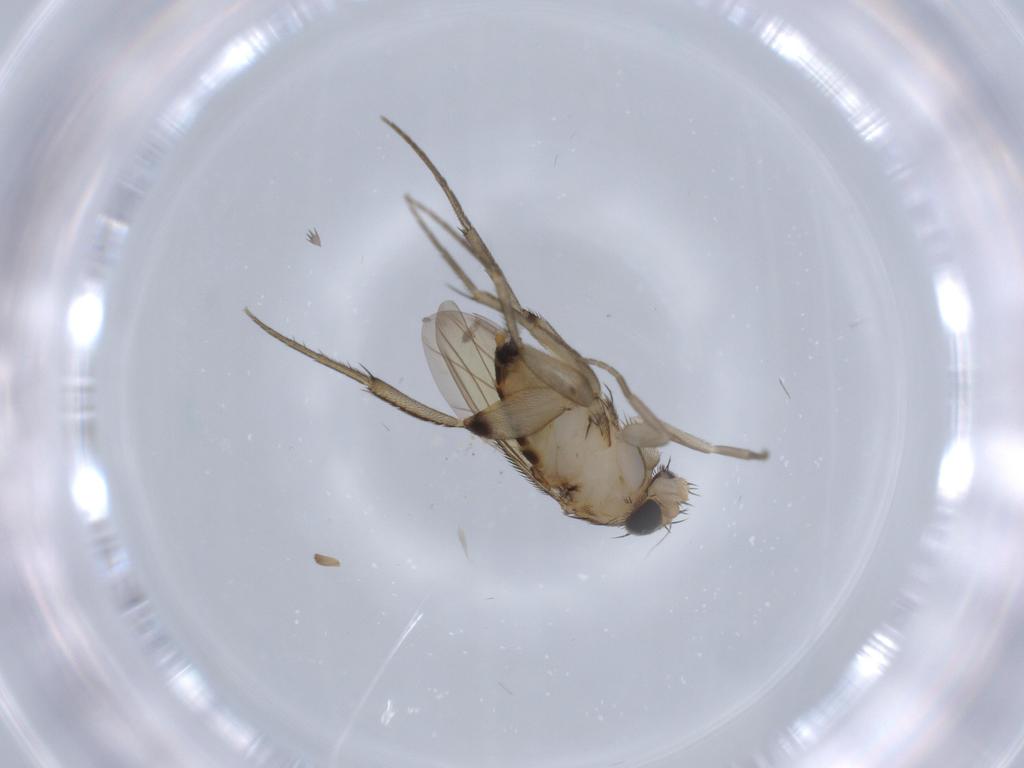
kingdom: Animalia
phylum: Arthropoda
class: Insecta
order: Diptera
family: Phoridae
